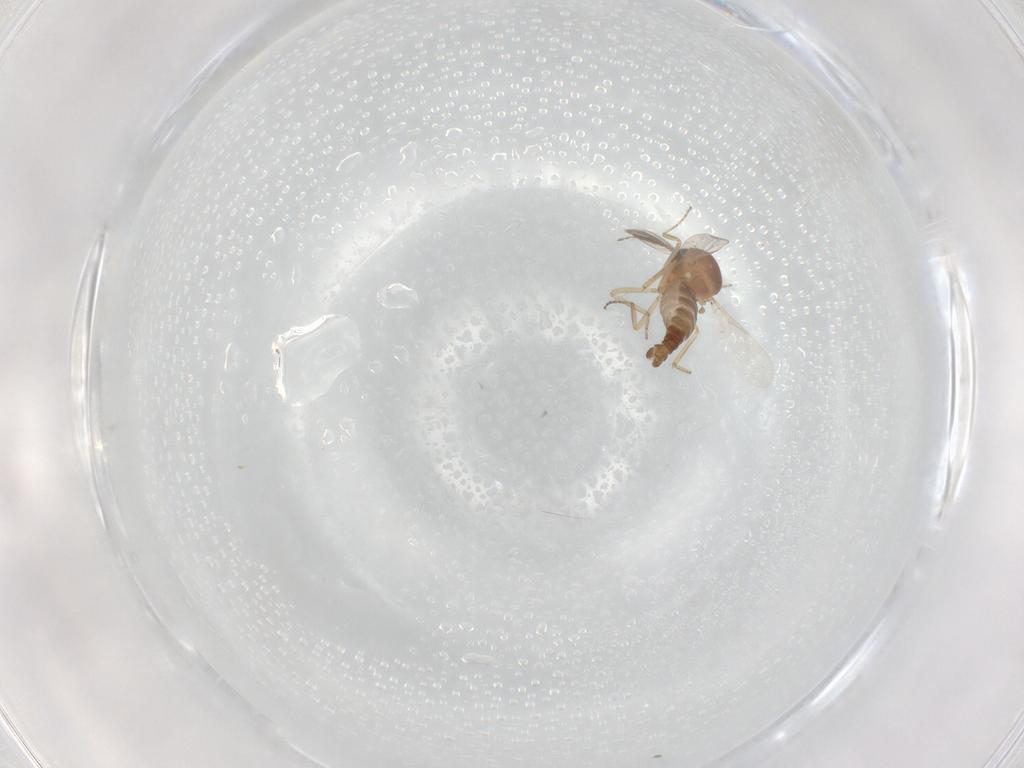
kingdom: Animalia
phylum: Arthropoda
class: Insecta
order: Diptera
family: Ceratopogonidae
